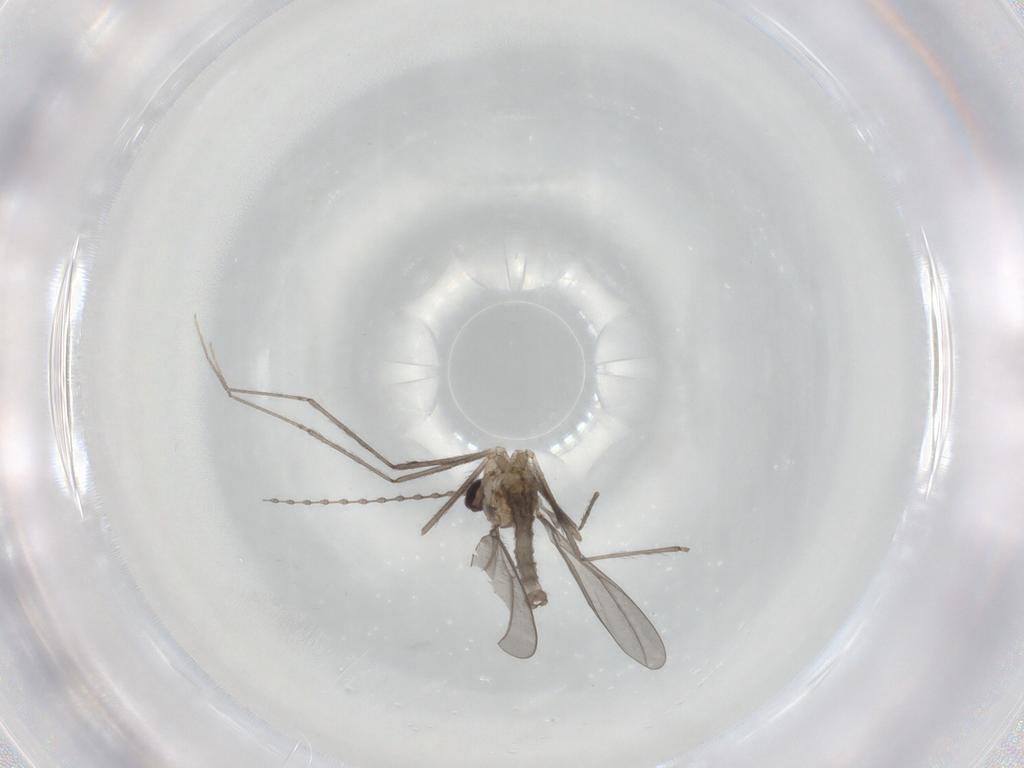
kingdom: Animalia
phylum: Arthropoda
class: Insecta
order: Diptera
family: Cecidomyiidae
